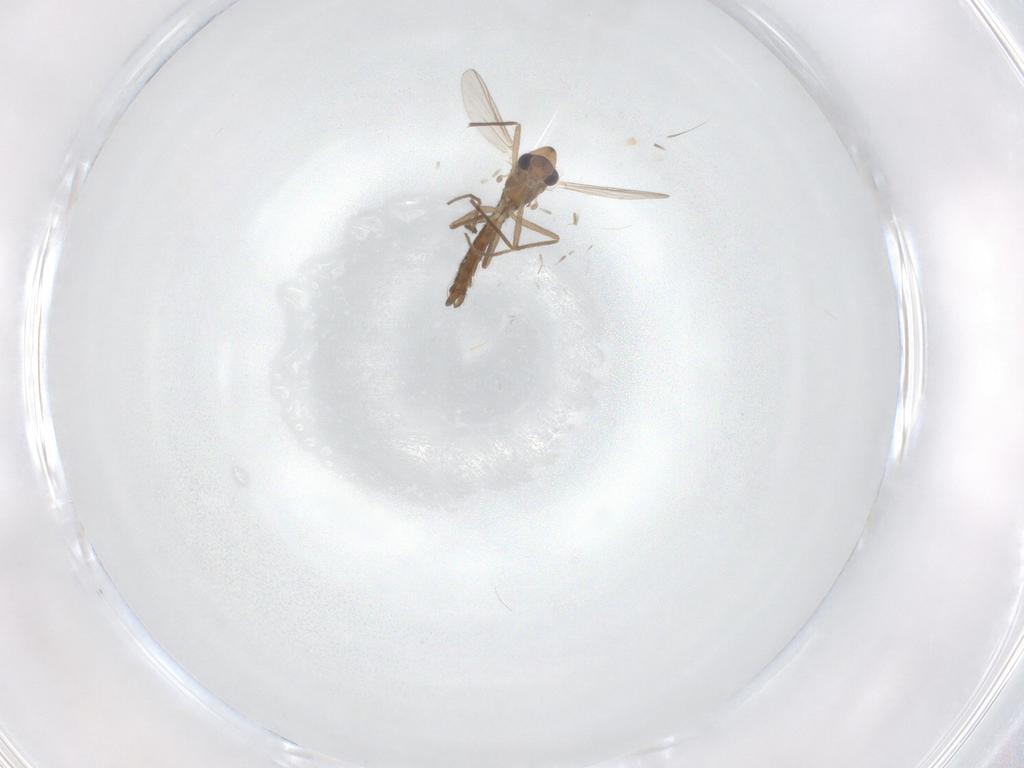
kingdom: Animalia
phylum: Arthropoda
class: Insecta
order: Diptera
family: Chironomidae
